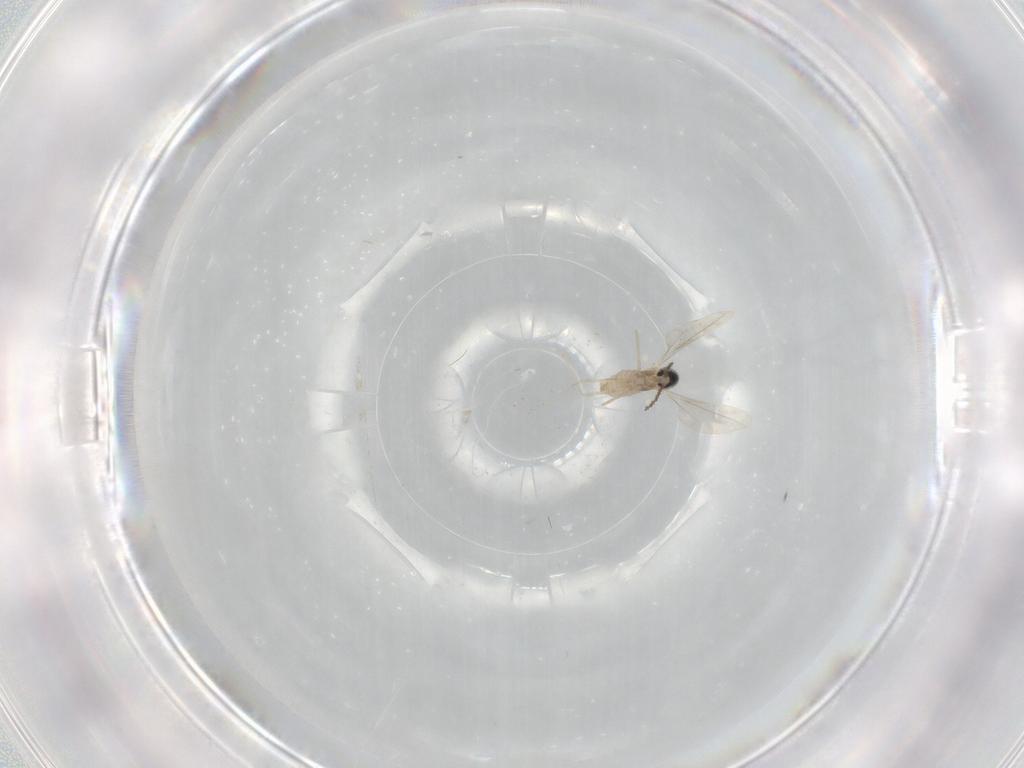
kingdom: Animalia
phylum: Arthropoda
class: Insecta
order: Diptera
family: Cecidomyiidae
